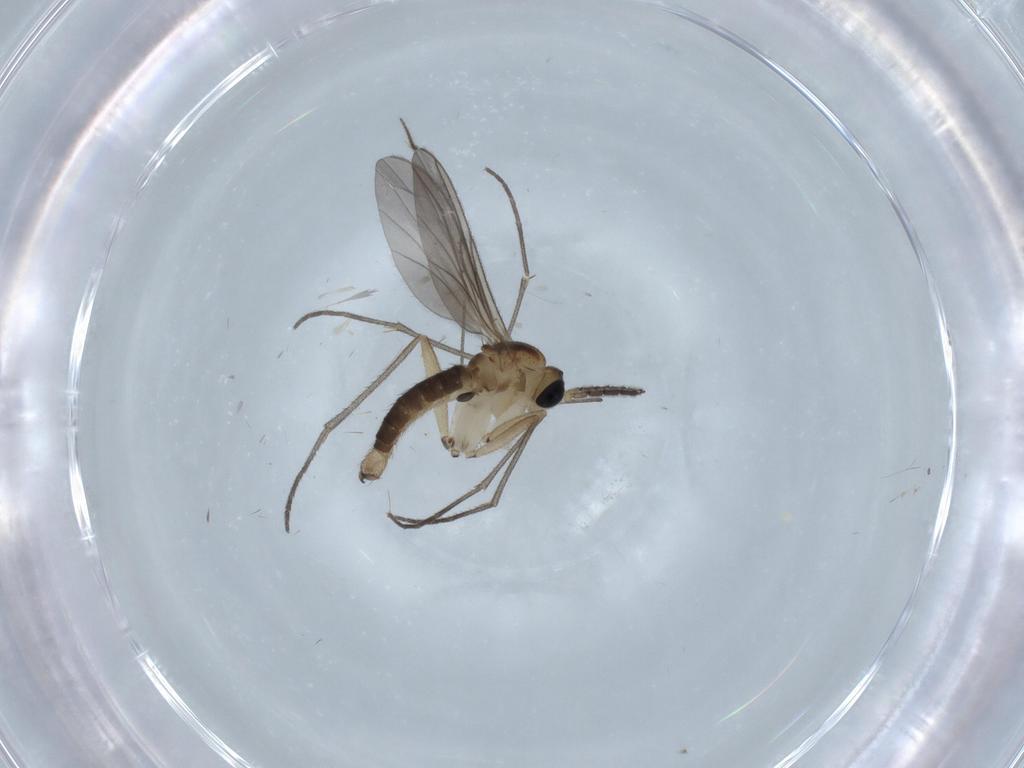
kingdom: Animalia
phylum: Arthropoda
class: Insecta
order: Diptera
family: Sciaridae
